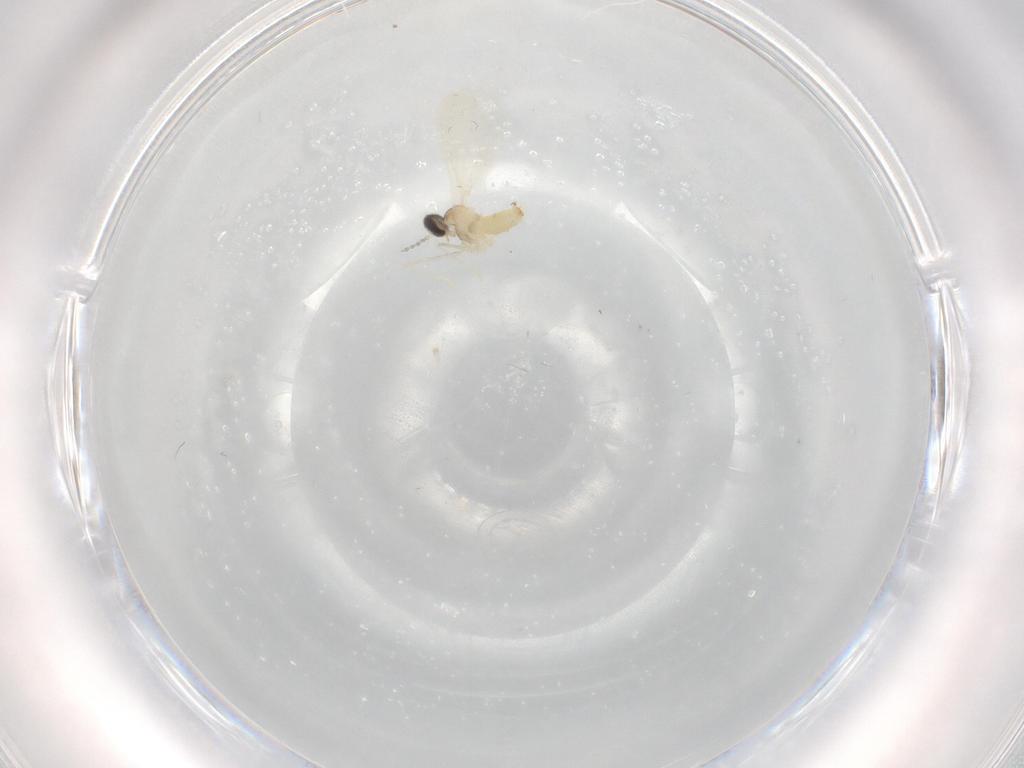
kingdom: Animalia
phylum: Arthropoda
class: Insecta
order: Diptera
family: Cecidomyiidae
